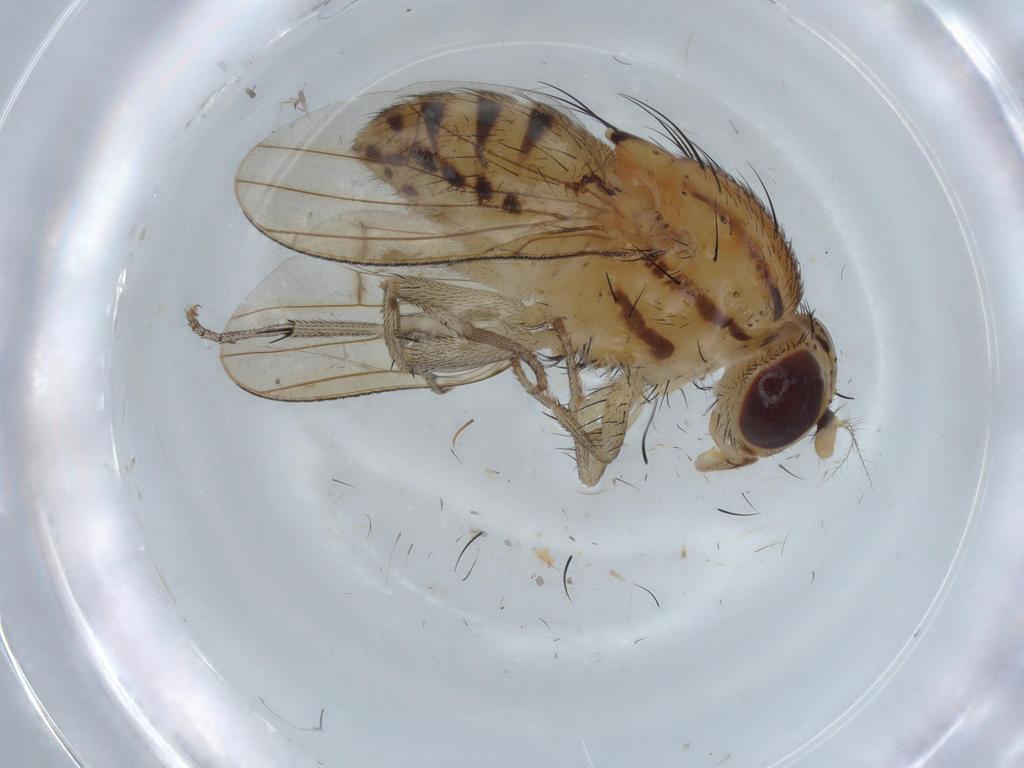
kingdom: Animalia
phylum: Arthropoda
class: Insecta
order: Diptera
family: Lauxaniidae
